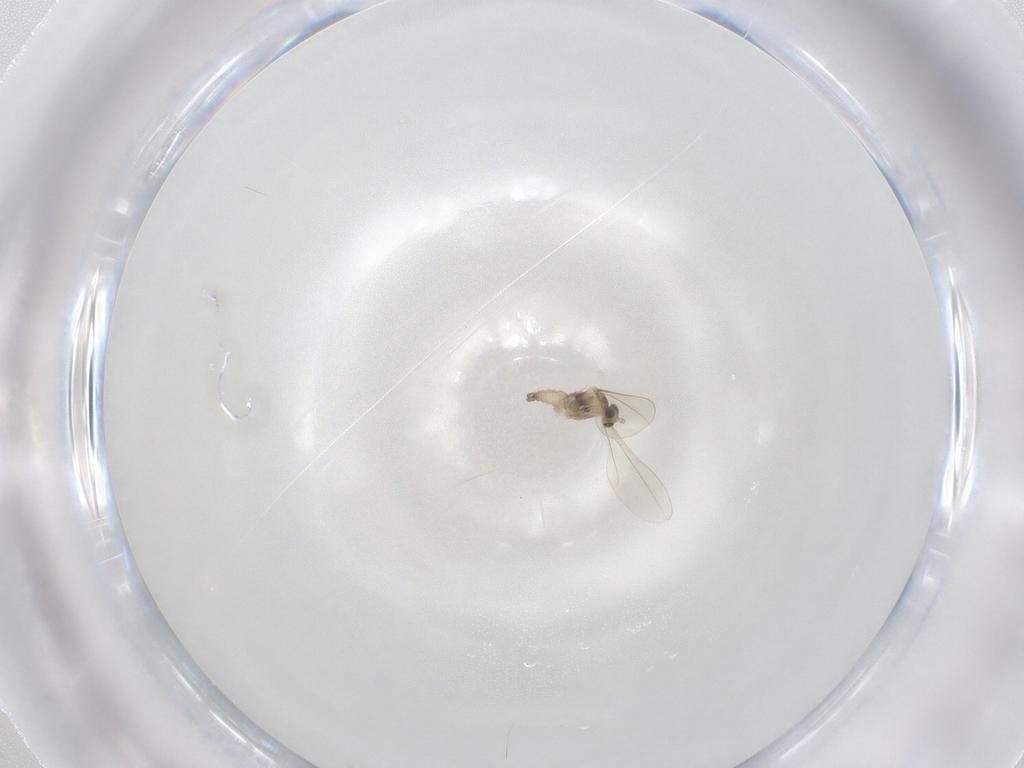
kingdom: Animalia
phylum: Arthropoda
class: Insecta
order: Diptera
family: Cecidomyiidae
